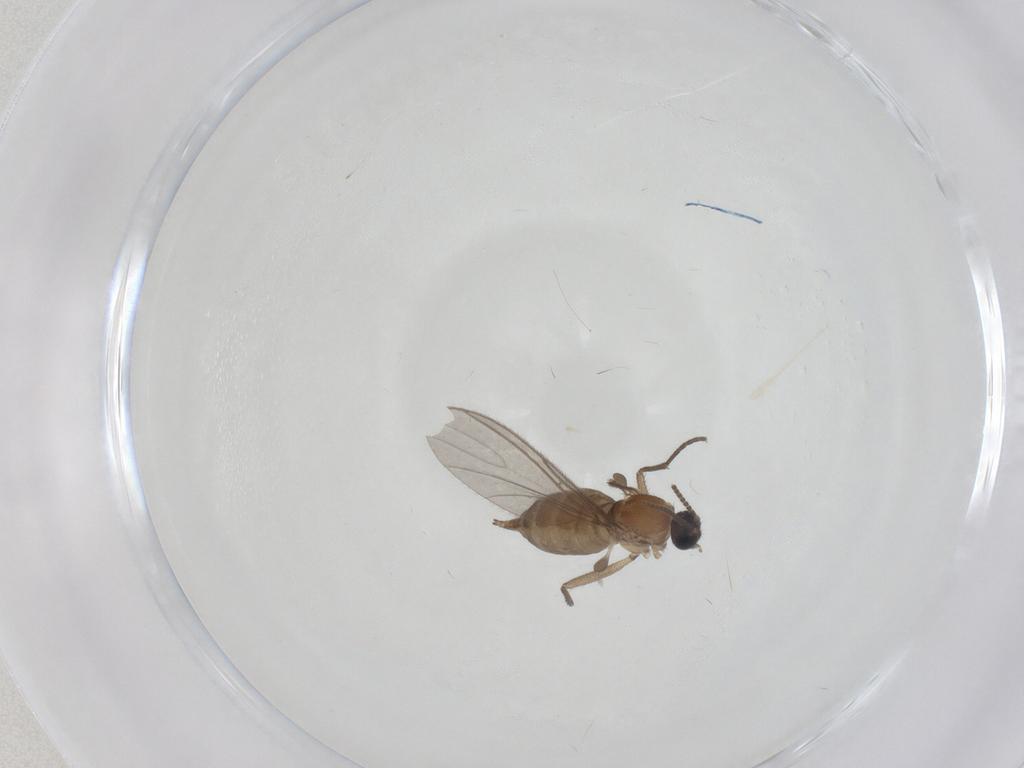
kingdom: Animalia
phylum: Arthropoda
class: Insecta
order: Diptera
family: Sciaridae
